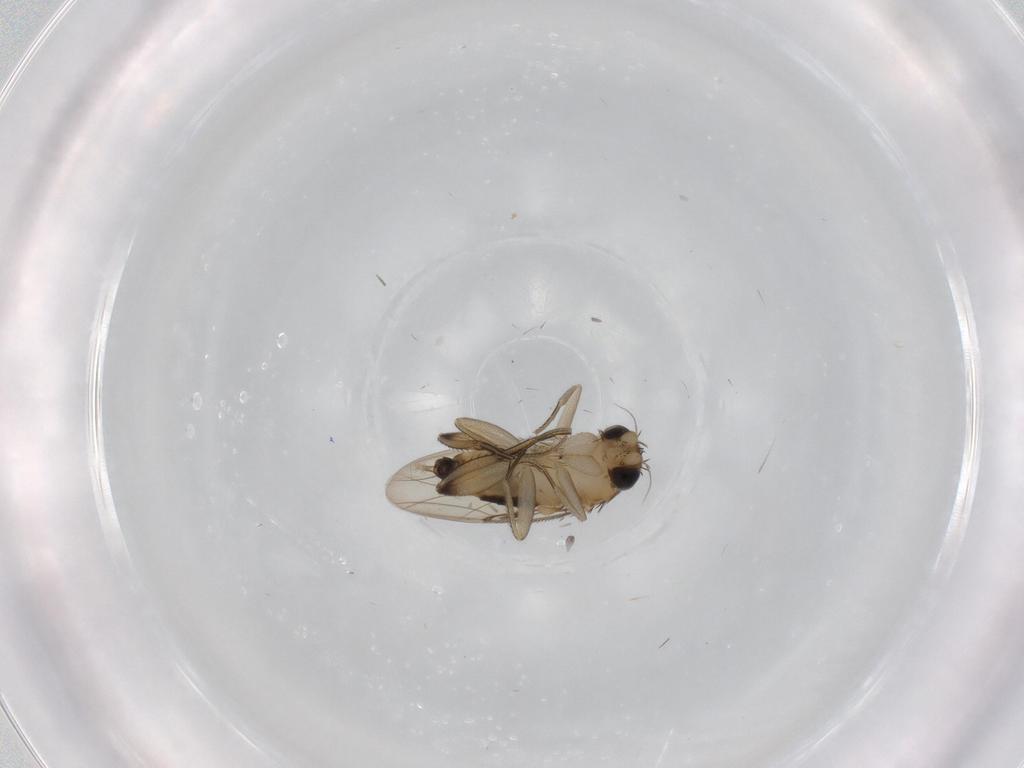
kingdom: Animalia
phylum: Arthropoda
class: Insecta
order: Diptera
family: Phoridae
